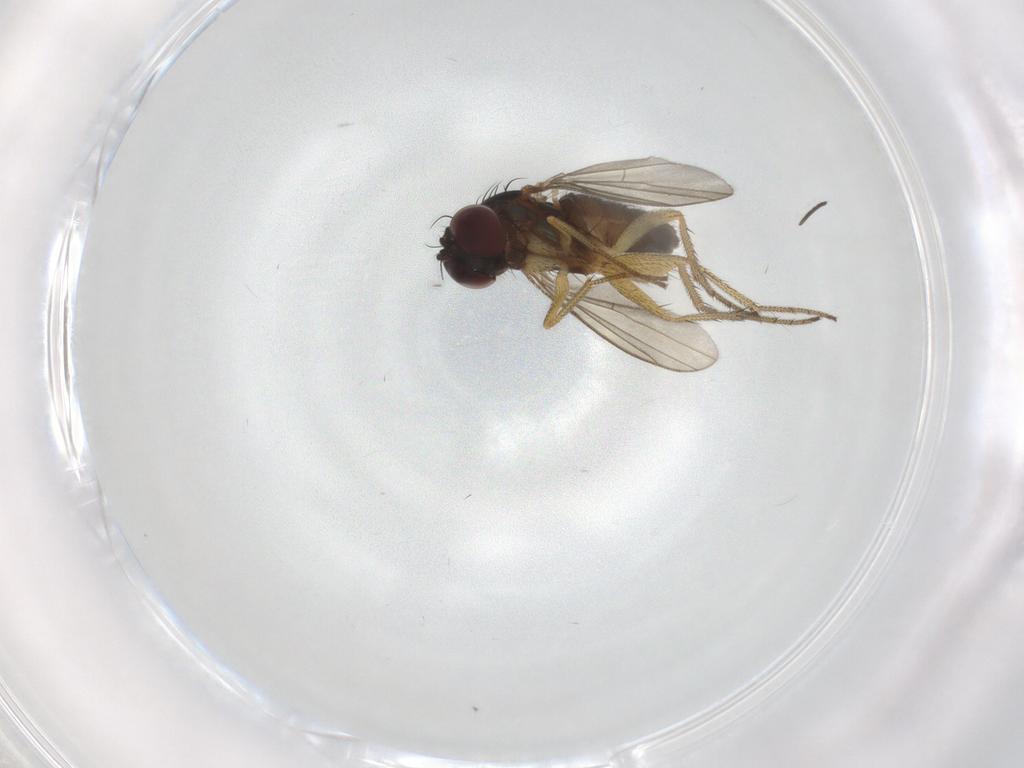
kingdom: Animalia
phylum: Arthropoda
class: Insecta
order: Diptera
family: Dolichopodidae
